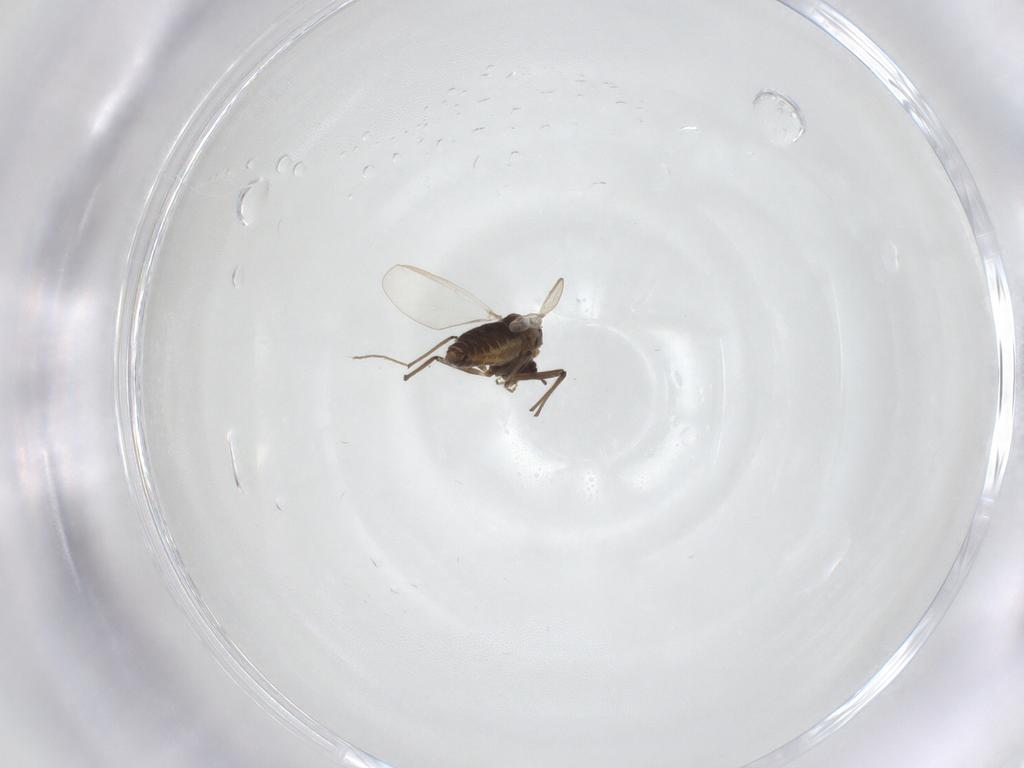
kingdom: Animalia
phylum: Arthropoda
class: Insecta
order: Diptera
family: Chironomidae
